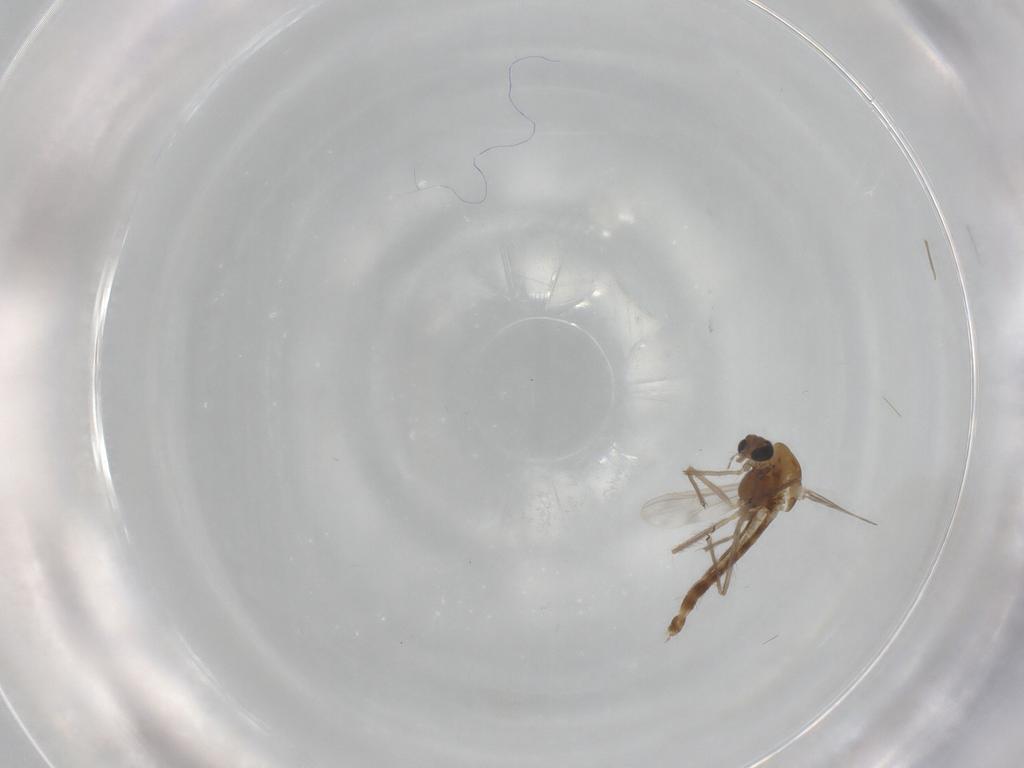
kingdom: Animalia
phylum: Arthropoda
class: Insecta
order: Diptera
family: Chironomidae
